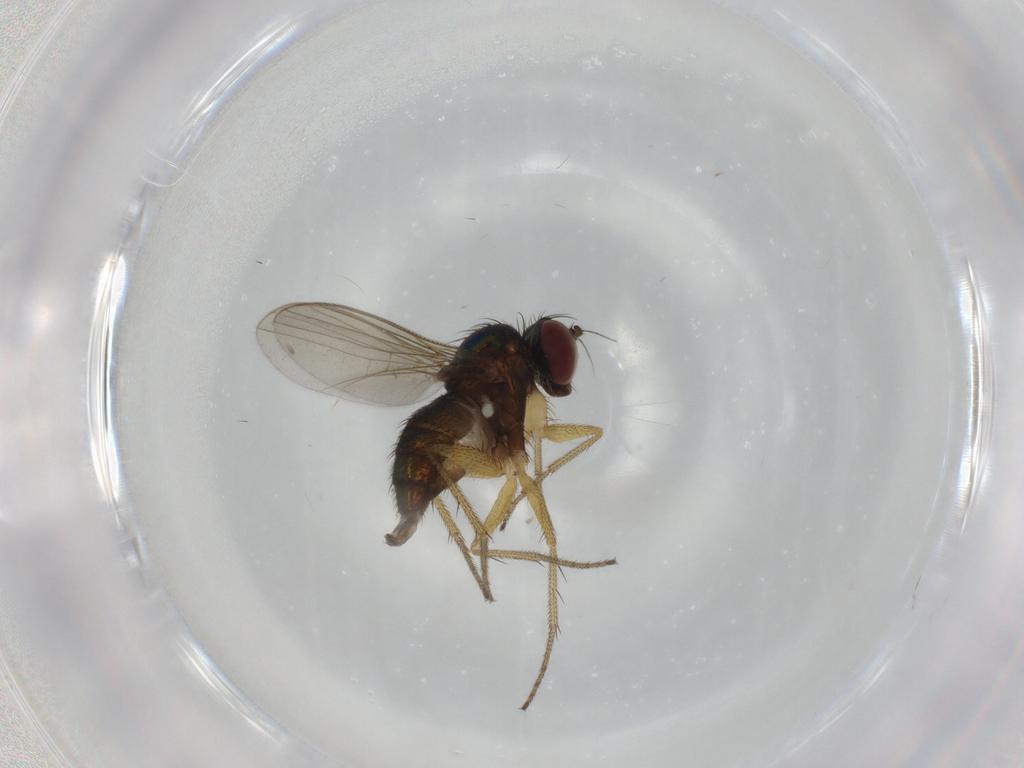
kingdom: Animalia
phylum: Arthropoda
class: Insecta
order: Diptera
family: Dolichopodidae
